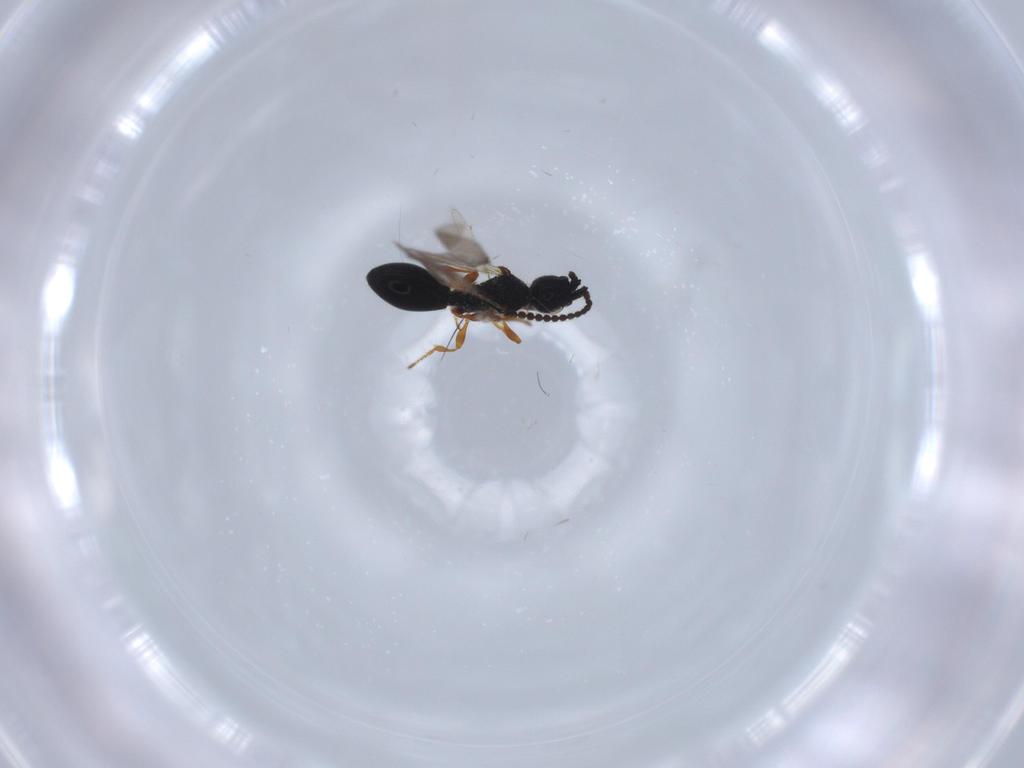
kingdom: Animalia
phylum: Arthropoda
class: Insecta
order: Hymenoptera
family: Diapriidae
